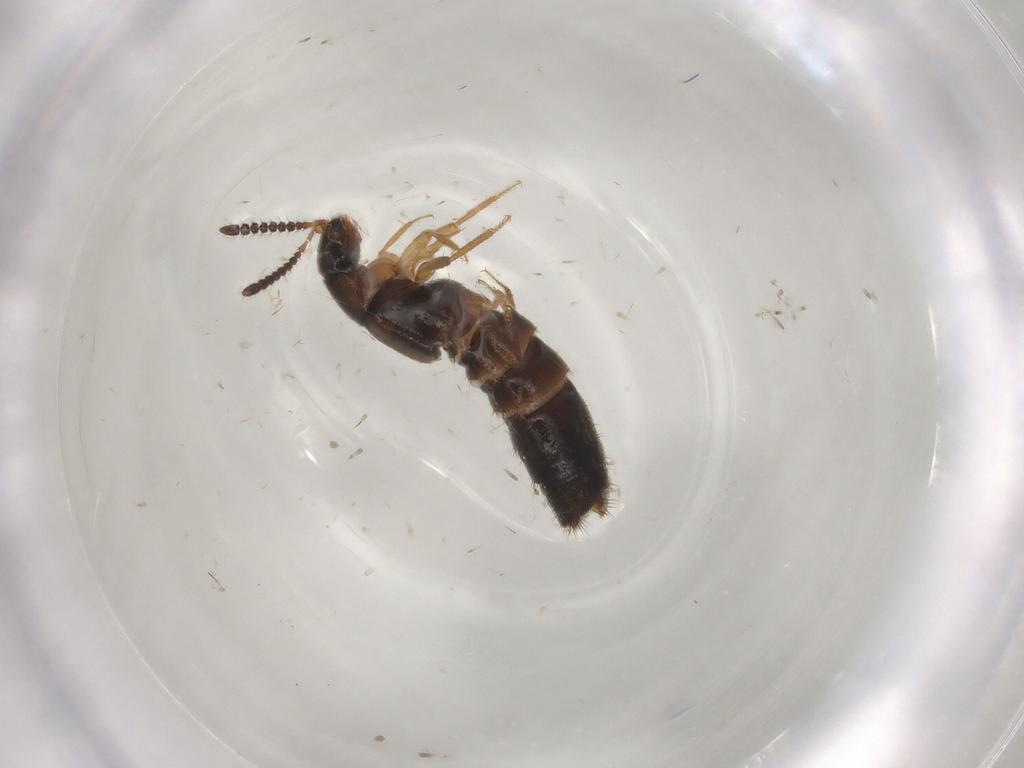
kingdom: Animalia
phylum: Arthropoda
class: Insecta
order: Coleoptera
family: Staphylinidae
